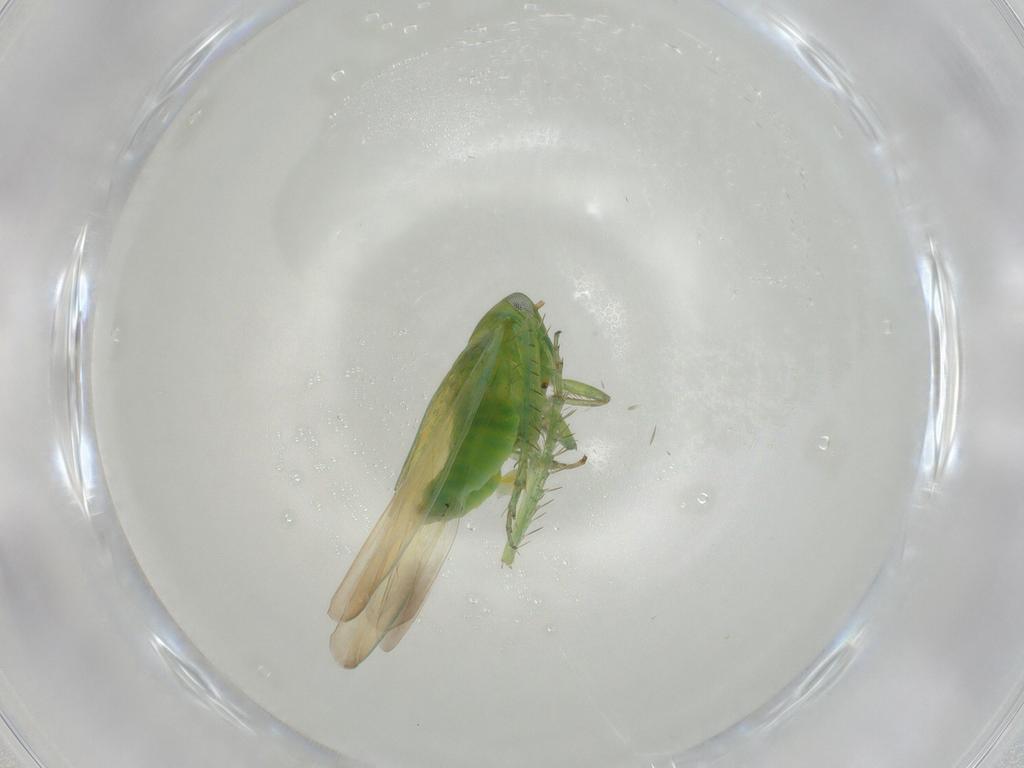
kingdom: Animalia
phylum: Arthropoda
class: Insecta
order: Hemiptera
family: Cicadellidae
